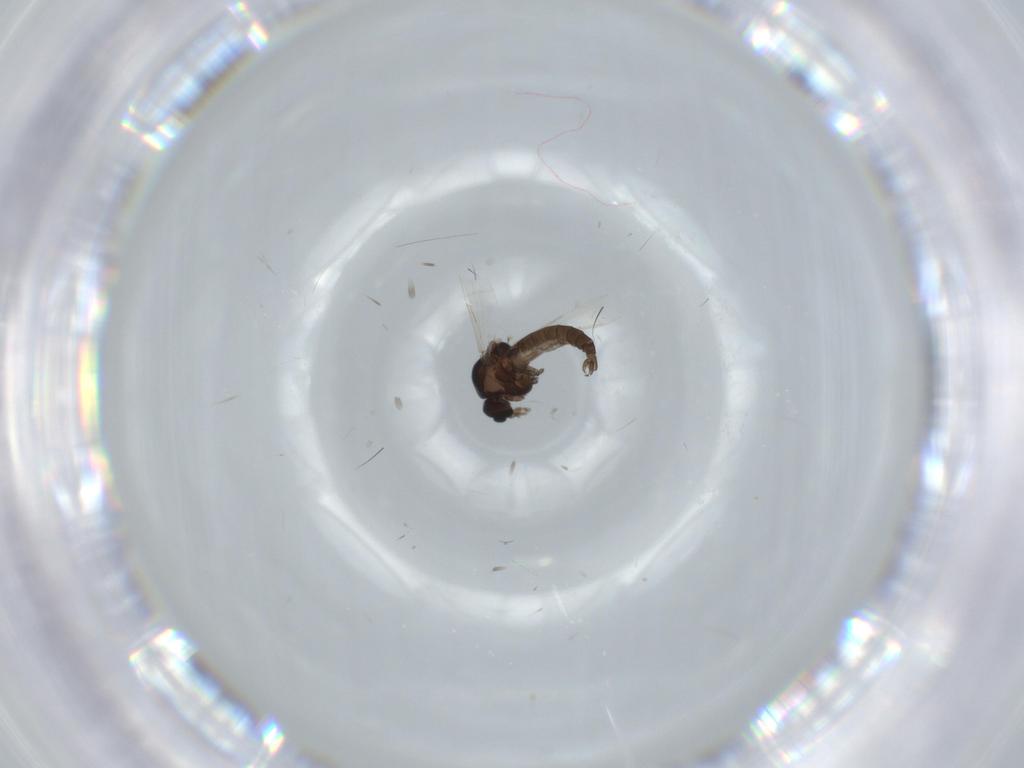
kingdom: Animalia
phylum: Arthropoda
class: Insecta
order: Diptera
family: Ceratopogonidae
